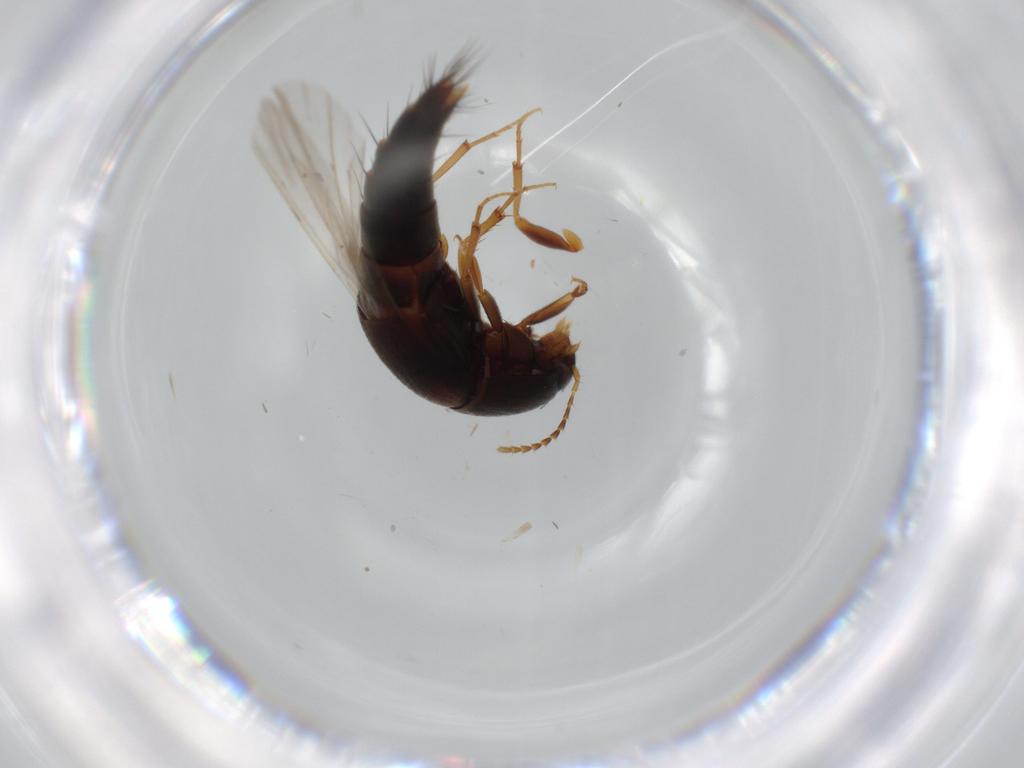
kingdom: Animalia
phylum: Arthropoda
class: Insecta
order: Coleoptera
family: Staphylinidae
